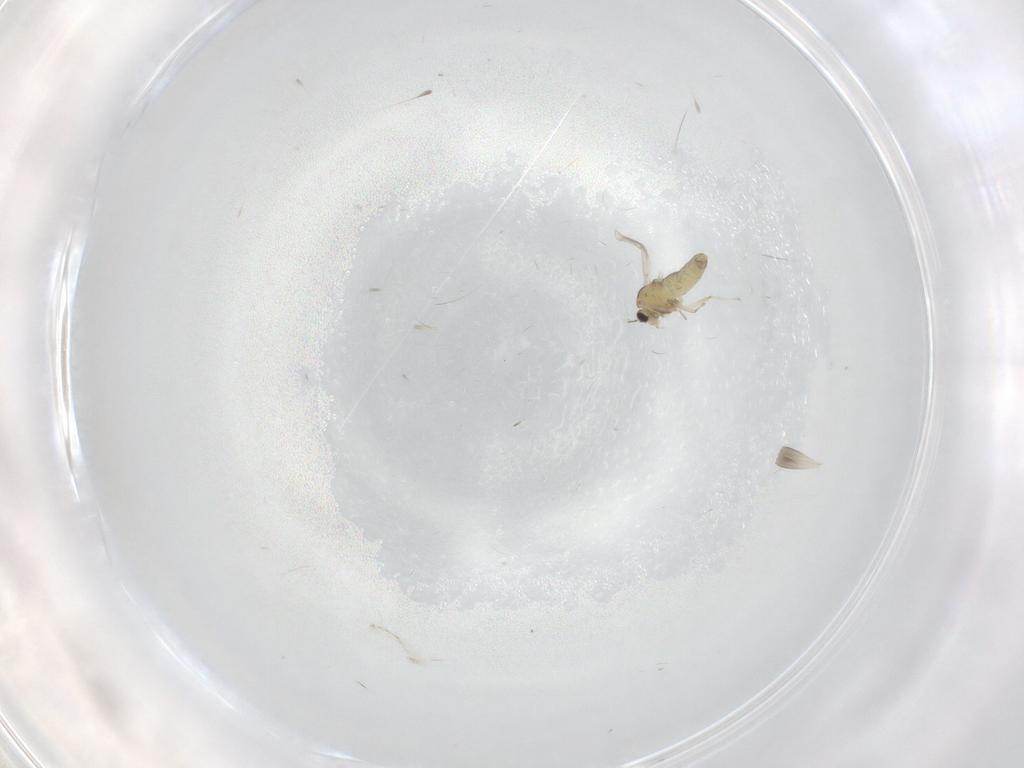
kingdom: Animalia
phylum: Arthropoda
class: Insecta
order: Diptera
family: Chironomidae
